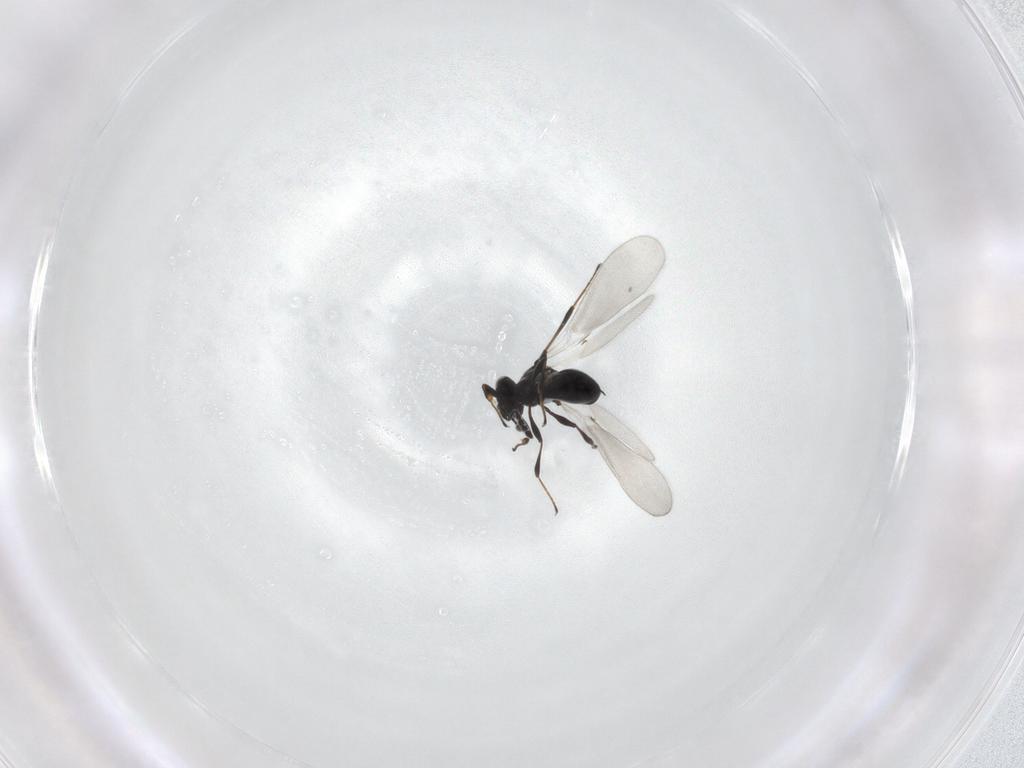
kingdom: Animalia
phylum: Arthropoda
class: Insecta
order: Hymenoptera
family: Platygastridae
